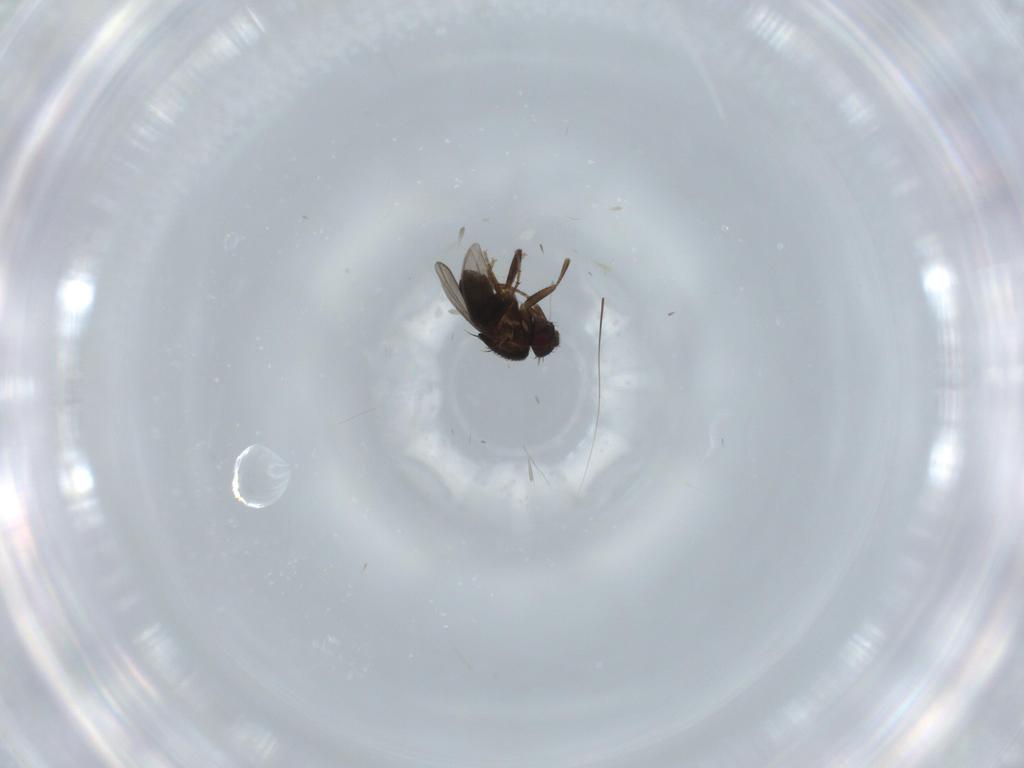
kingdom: Animalia
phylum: Arthropoda
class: Insecta
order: Diptera
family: Milichiidae
